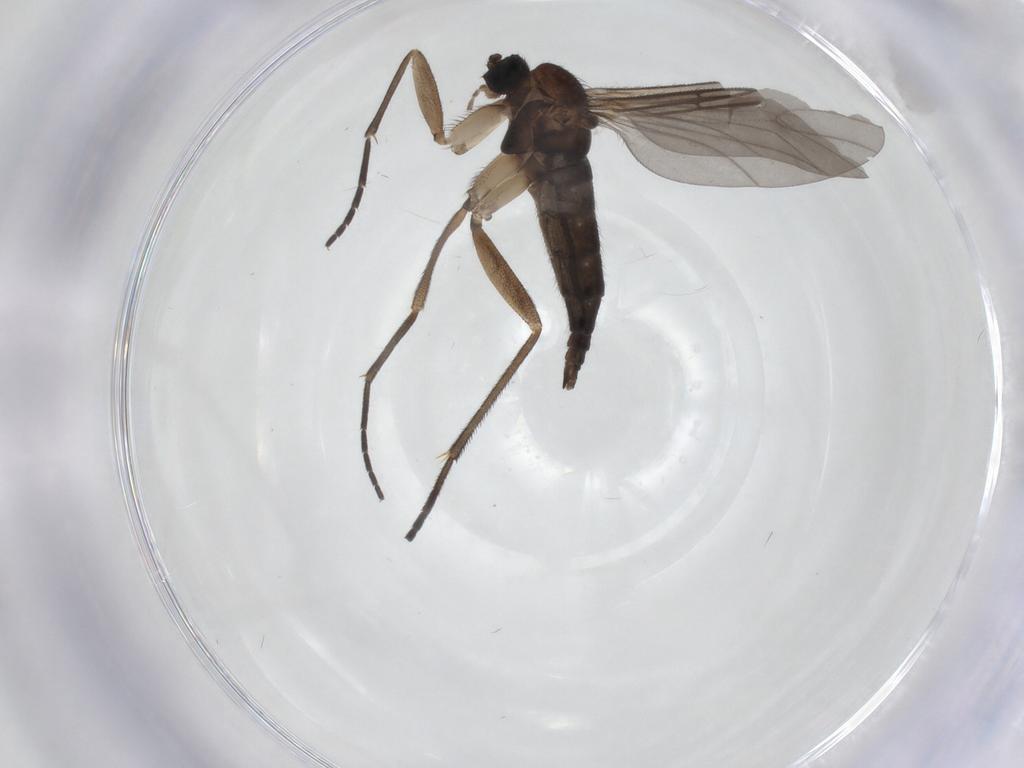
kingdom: Animalia
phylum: Arthropoda
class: Insecta
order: Diptera
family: Sciaridae
